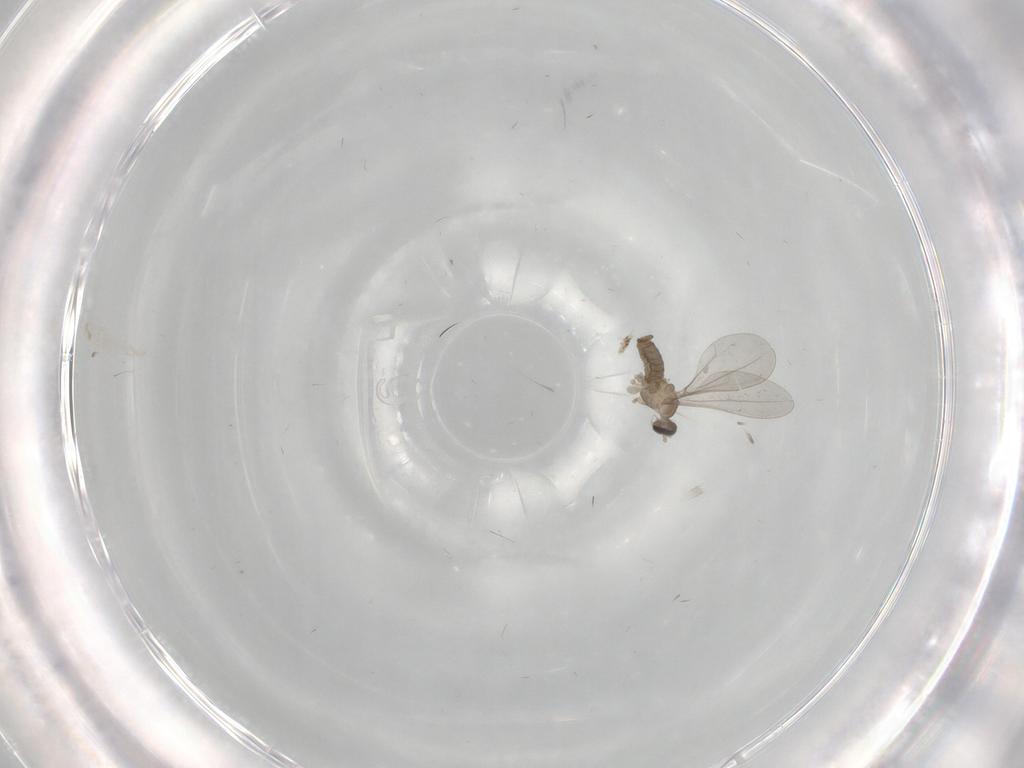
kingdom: Animalia
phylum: Arthropoda
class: Insecta
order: Diptera
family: Cecidomyiidae
